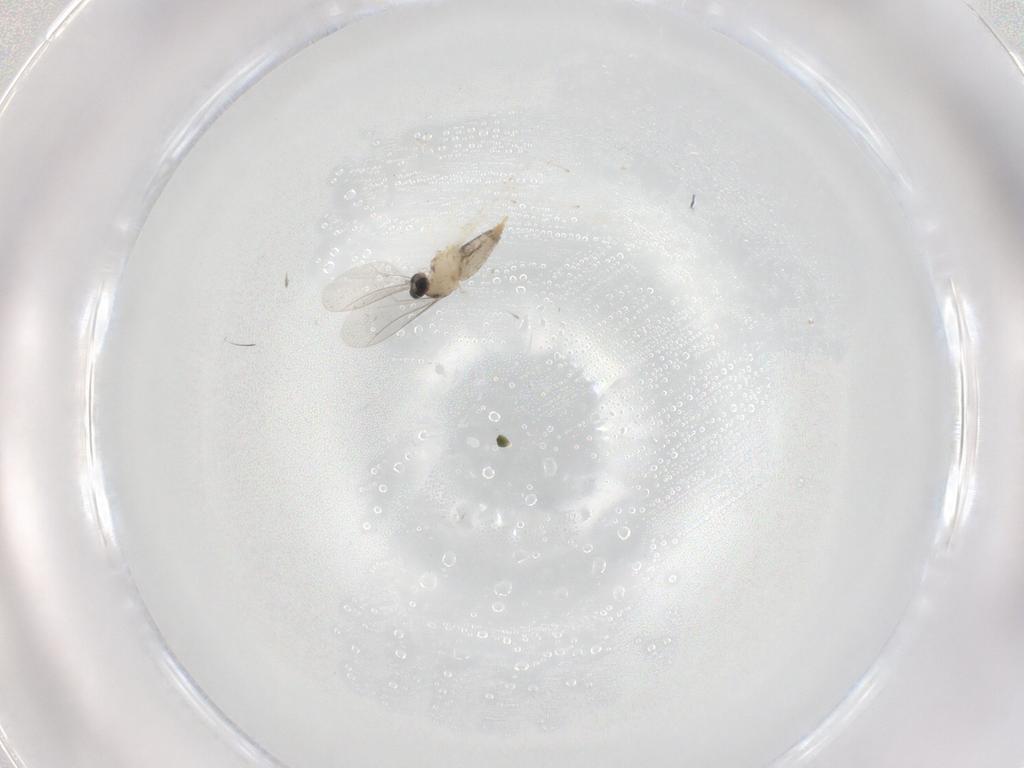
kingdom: Animalia
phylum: Arthropoda
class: Insecta
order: Diptera
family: Cecidomyiidae
